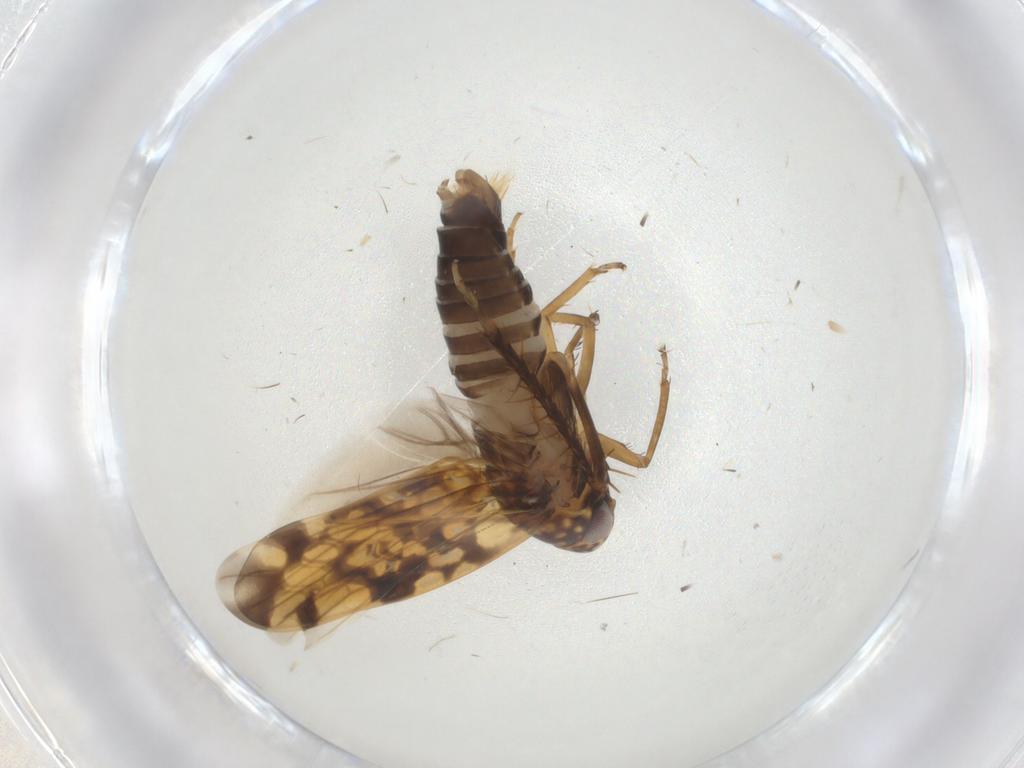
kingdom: Animalia
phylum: Arthropoda
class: Insecta
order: Hemiptera
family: Cicadellidae
